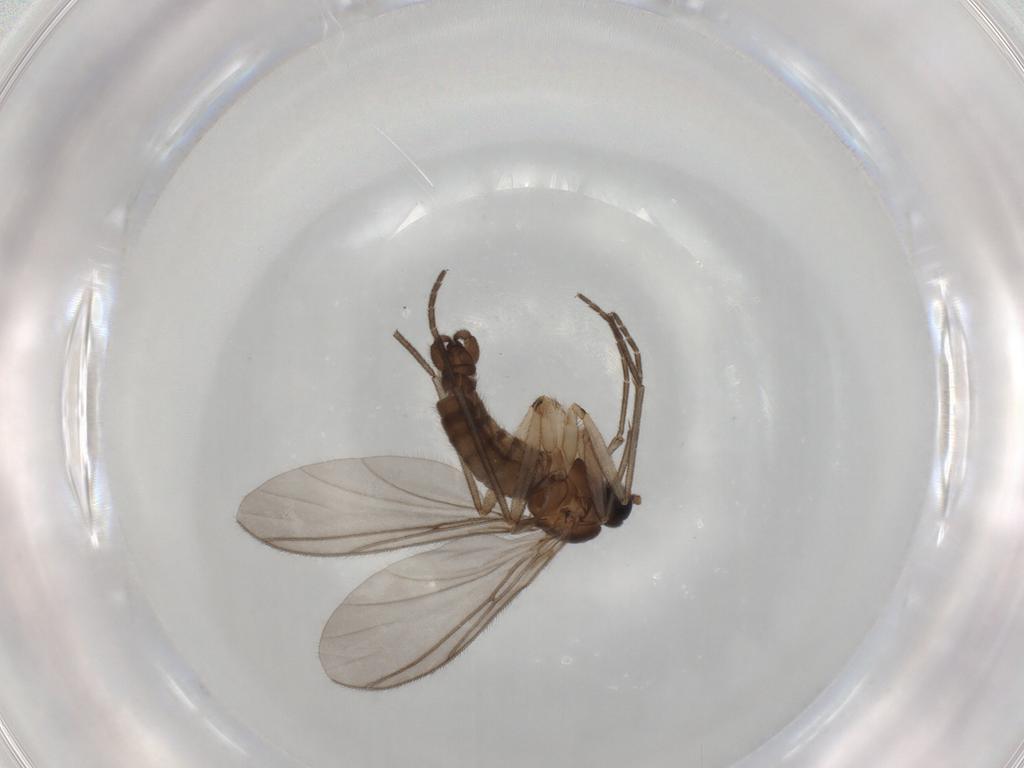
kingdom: Animalia
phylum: Arthropoda
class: Insecta
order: Diptera
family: Sciaridae
